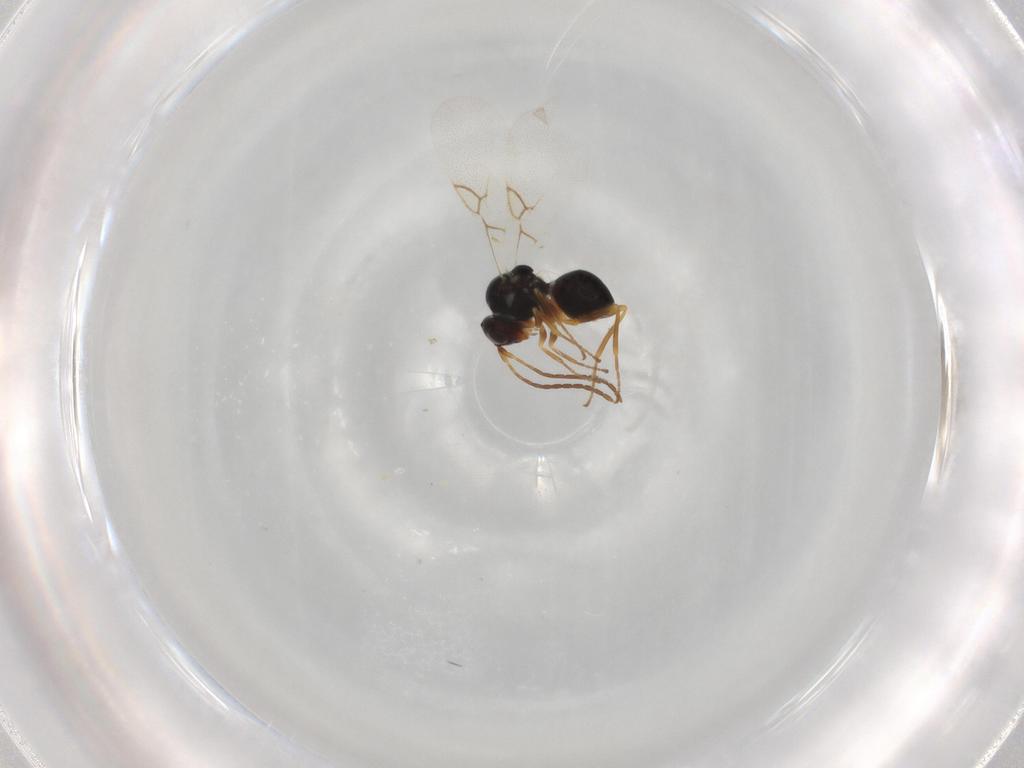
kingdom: Animalia
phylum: Arthropoda
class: Insecta
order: Hymenoptera
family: Figitidae
